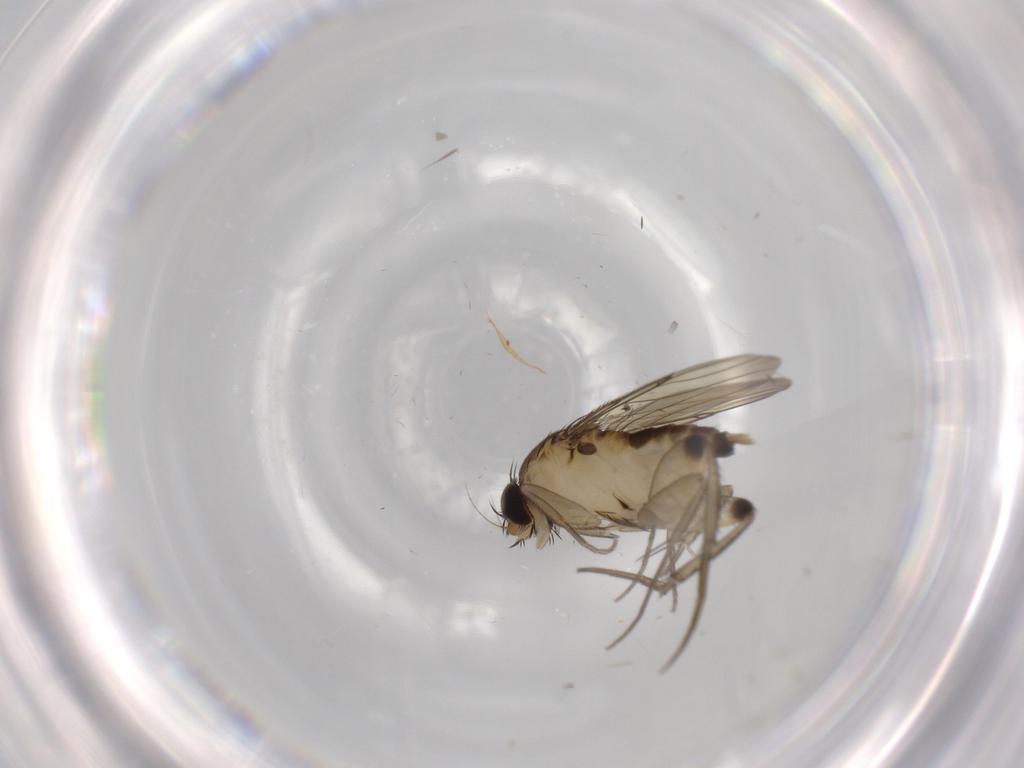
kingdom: Animalia
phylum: Arthropoda
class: Insecta
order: Diptera
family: Phoridae
